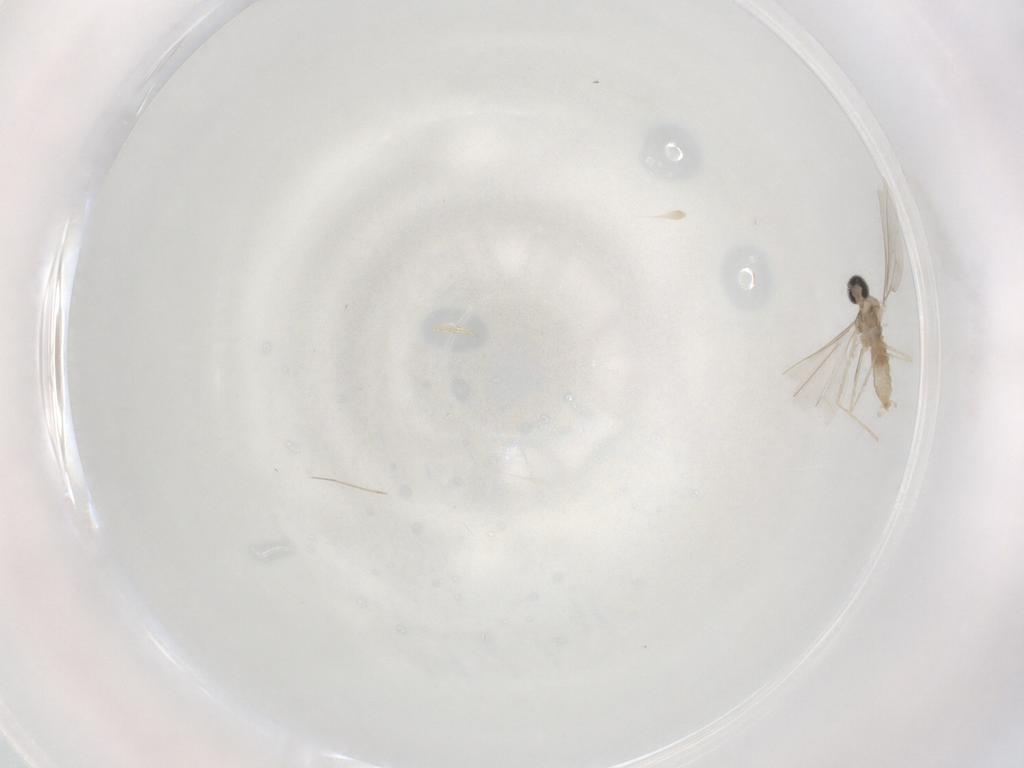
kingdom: Animalia
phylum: Arthropoda
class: Insecta
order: Diptera
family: Cecidomyiidae
